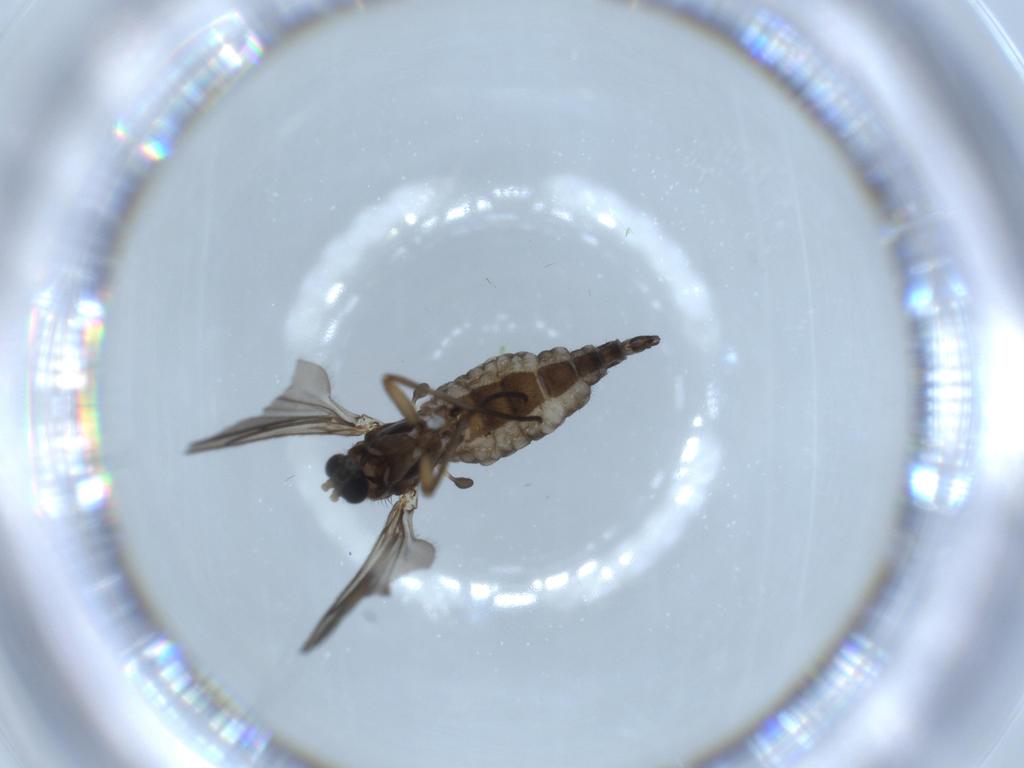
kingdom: Animalia
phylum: Arthropoda
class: Insecta
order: Diptera
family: Sciaridae
